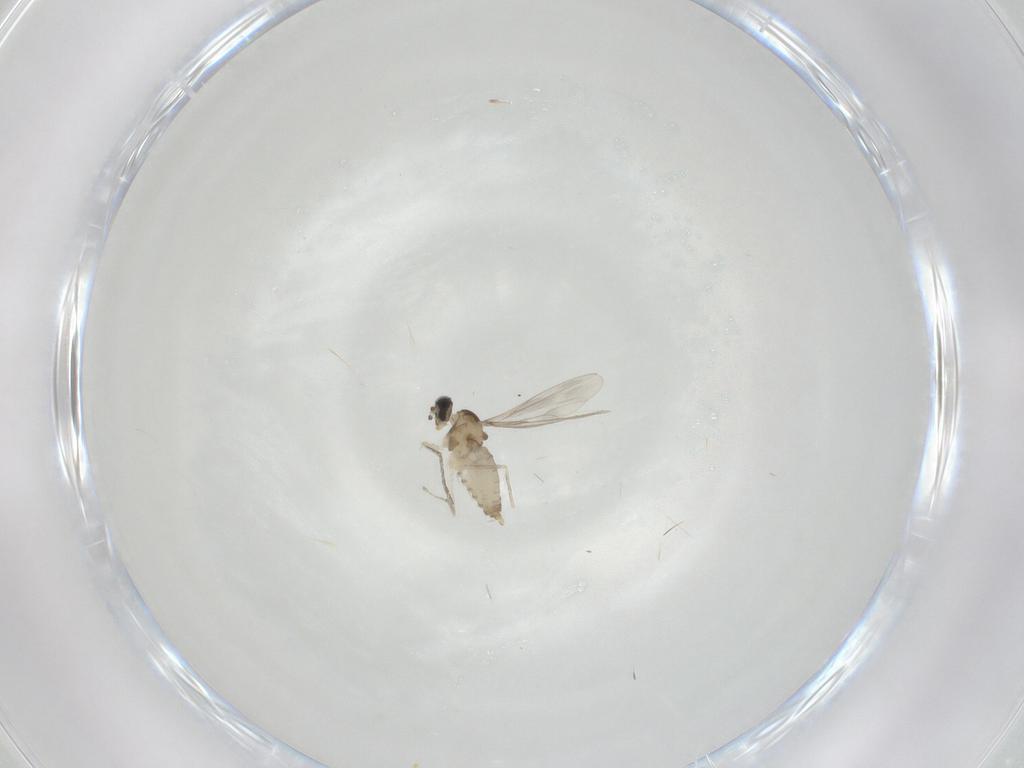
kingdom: Animalia
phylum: Arthropoda
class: Insecta
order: Diptera
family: Cecidomyiidae
